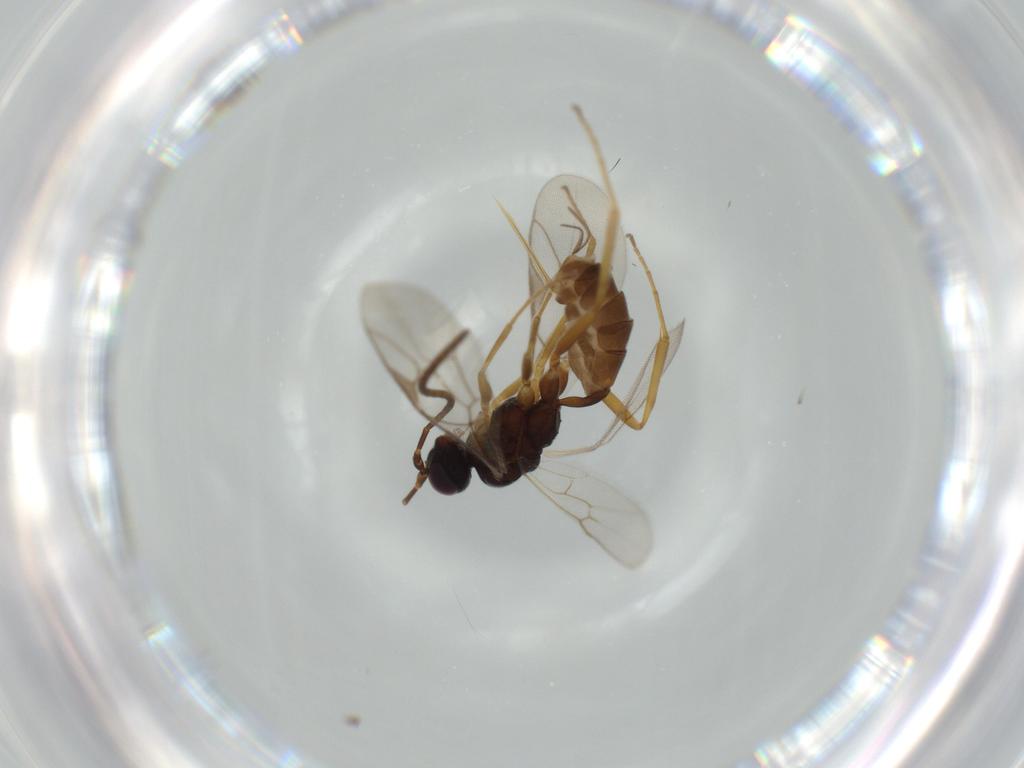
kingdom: Animalia
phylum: Arthropoda
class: Insecta
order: Hymenoptera
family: Ichneumonidae
